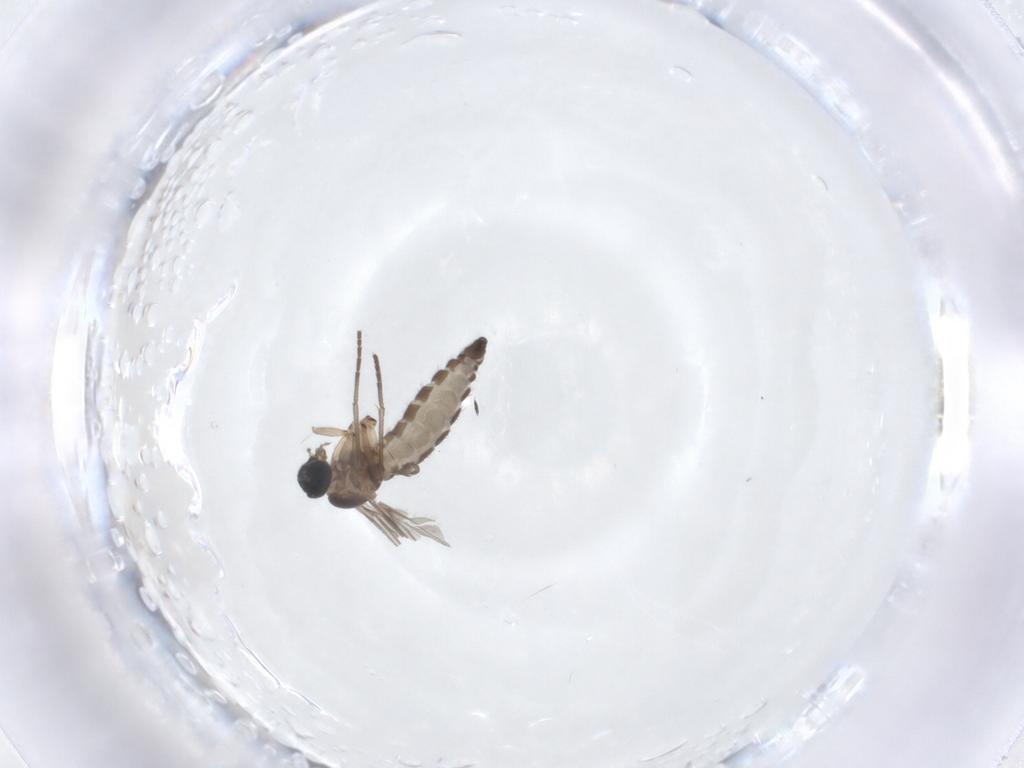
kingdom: Animalia
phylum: Arthropoda
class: Insecta
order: Diptera
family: Sciaridae
